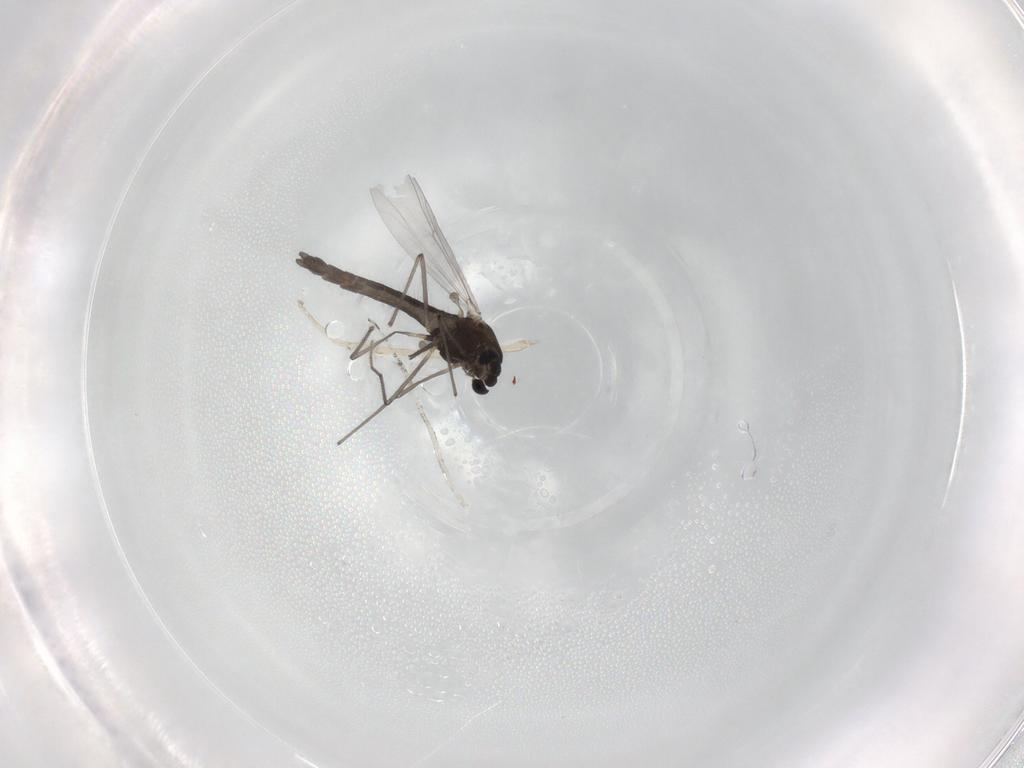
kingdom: Animalia
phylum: Arthropoda
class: Insecta
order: Diptera
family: Chironomidae
